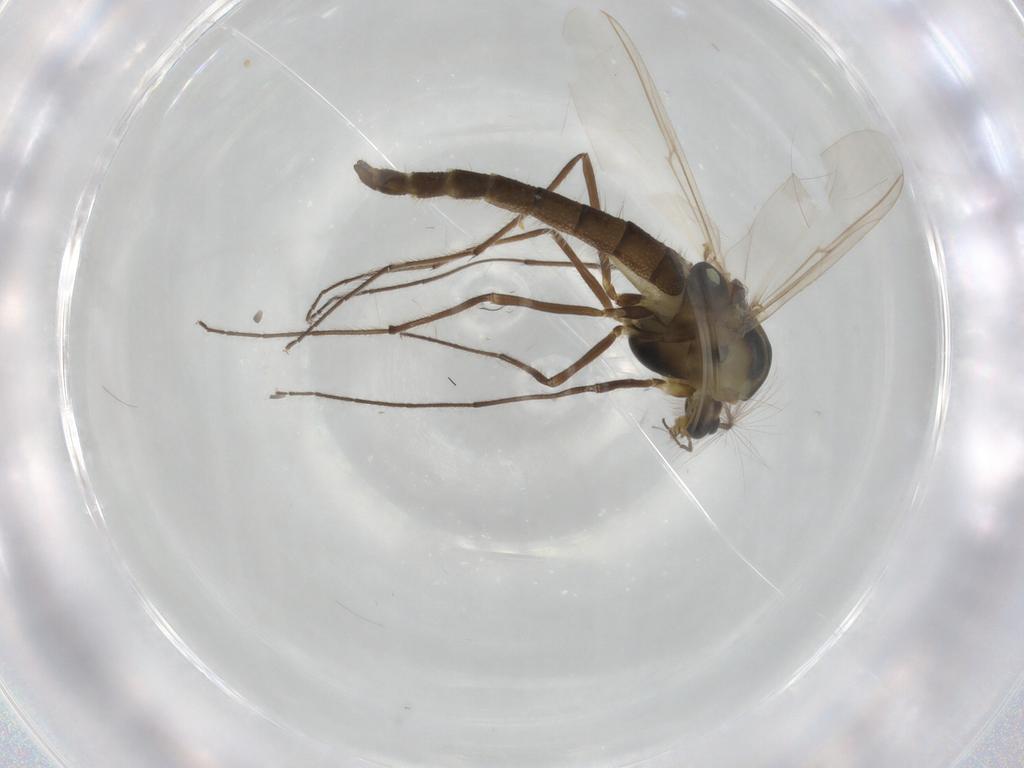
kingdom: Animalia
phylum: Arthropoda
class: Insecta
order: Diptera
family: Hybotidae
